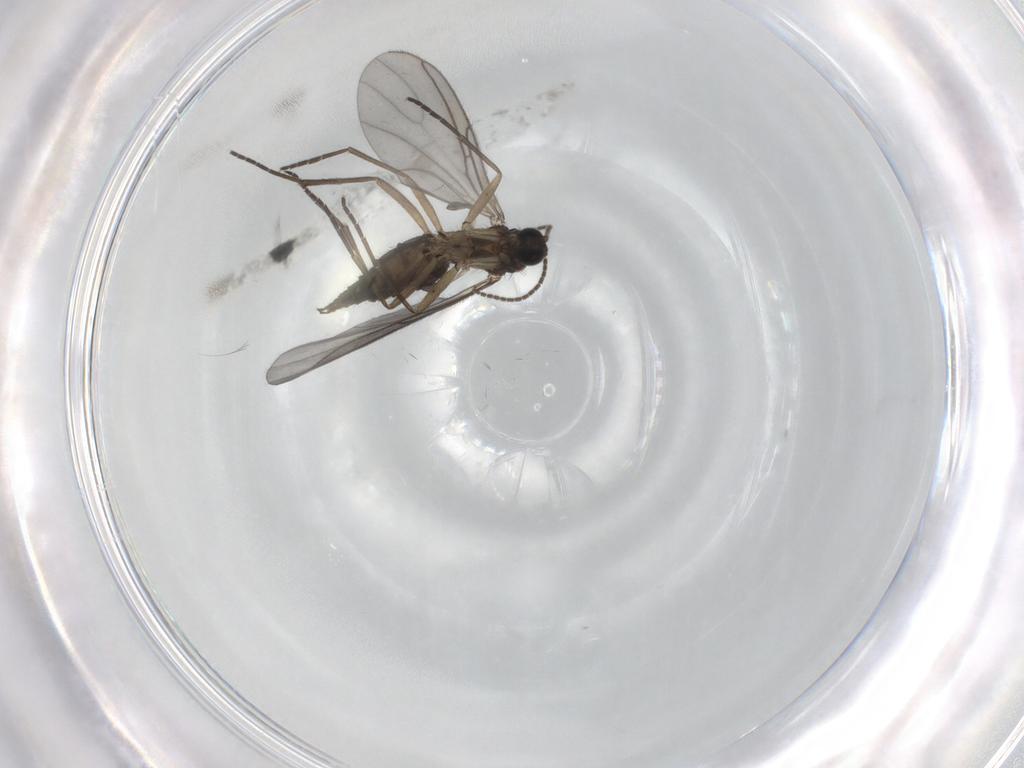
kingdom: Animalia
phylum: Arthropoda
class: Insecta
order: Diptera
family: Sciaridae
